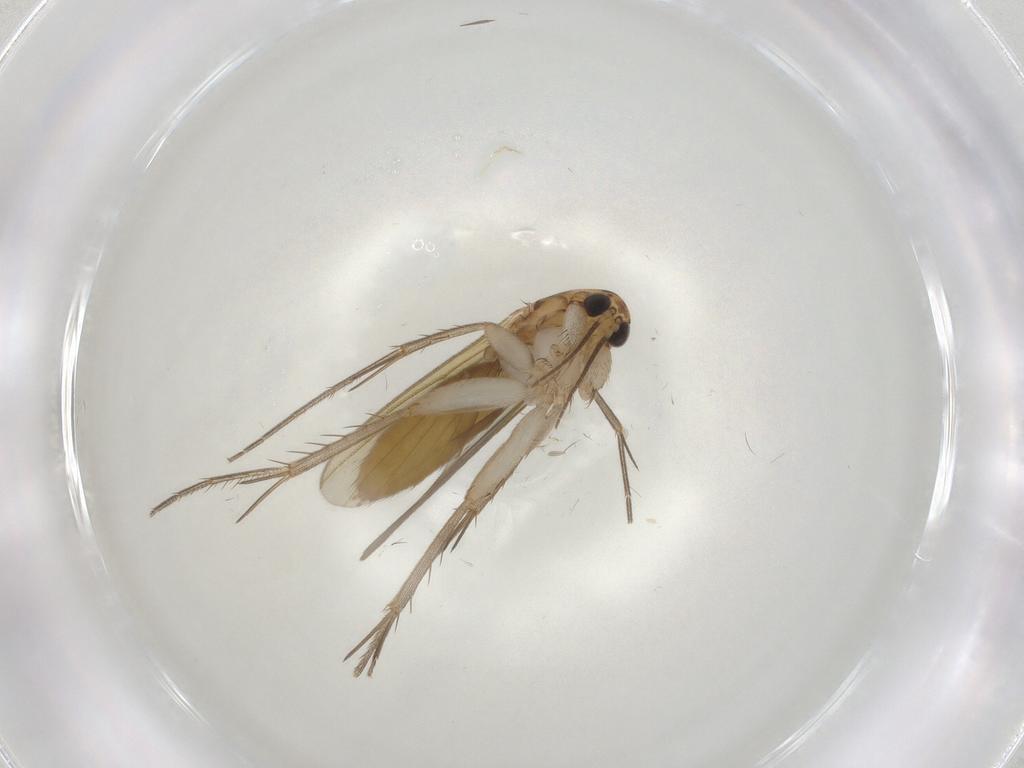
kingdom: Animalia
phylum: Arthropoda
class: Insecta
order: Diptera
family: Mycetophilidae
